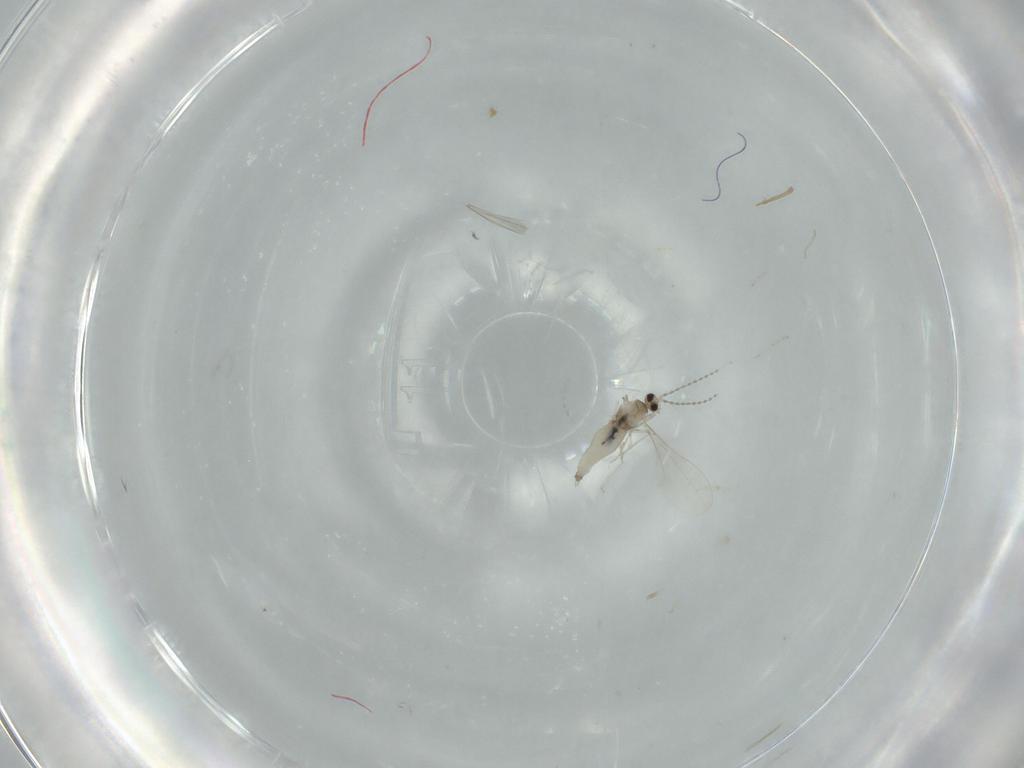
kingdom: Animalia
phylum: Arthropoda
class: Insecta
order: Diptera
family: Cecidomyiidae
